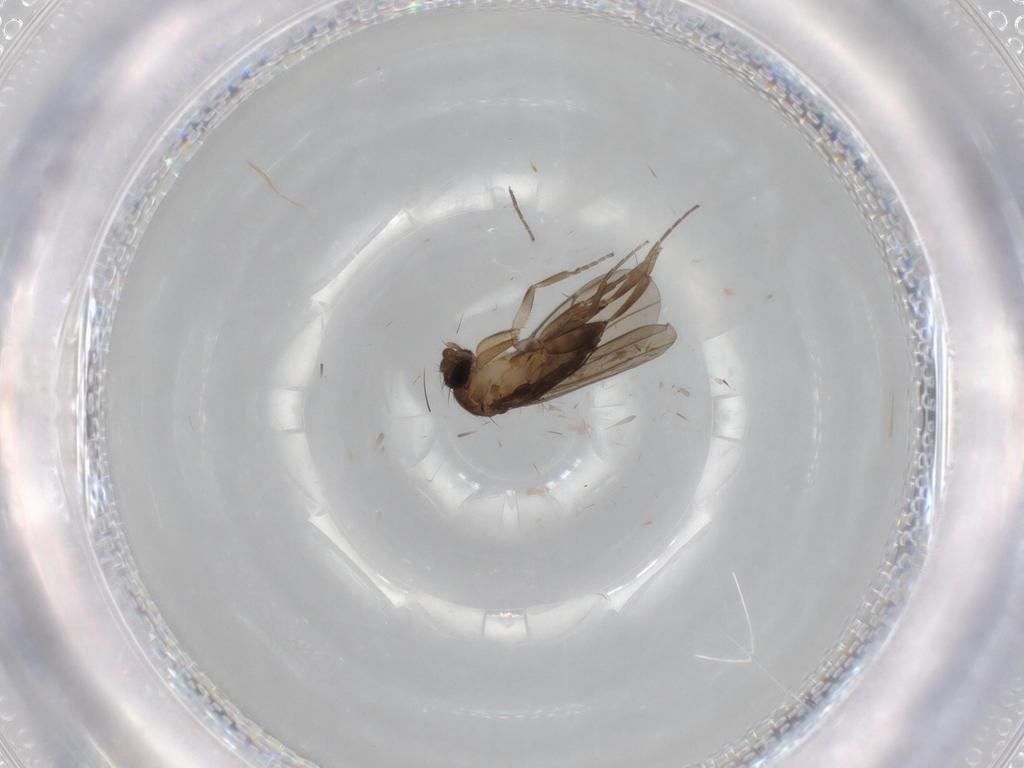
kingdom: Animalia
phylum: Arthropoda
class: Insecta
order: Diptera
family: Cecidomyiidae
